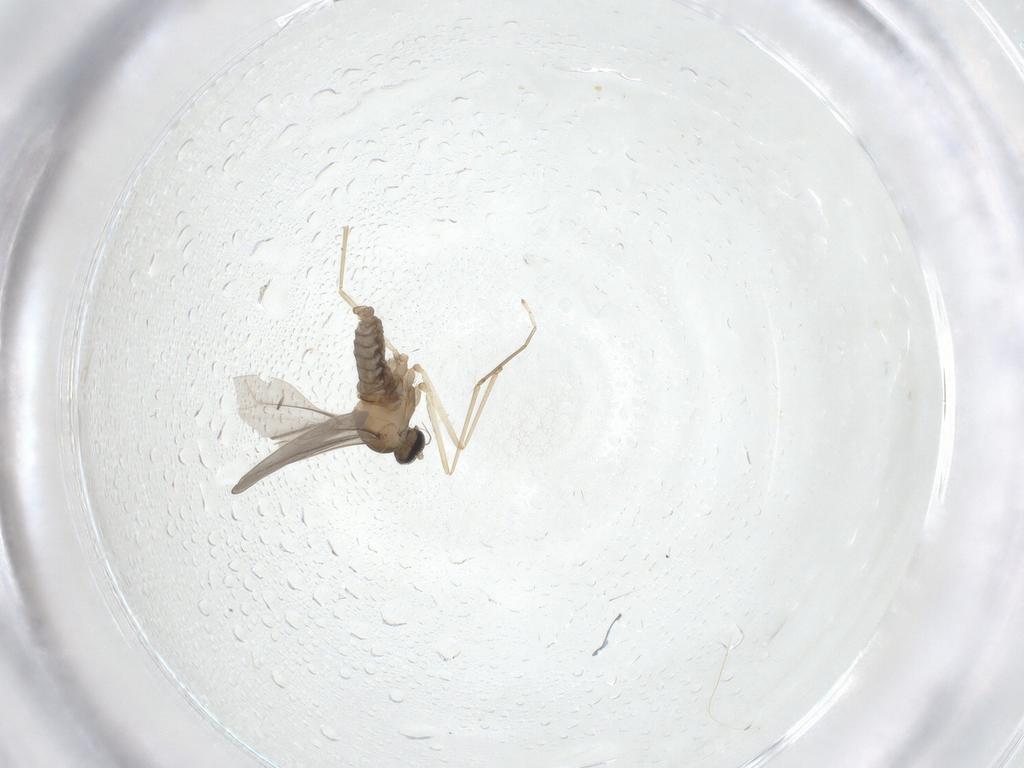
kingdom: Animalia
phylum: Arthropoda
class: Insecta
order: Diptera
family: Cecidomyiidae
